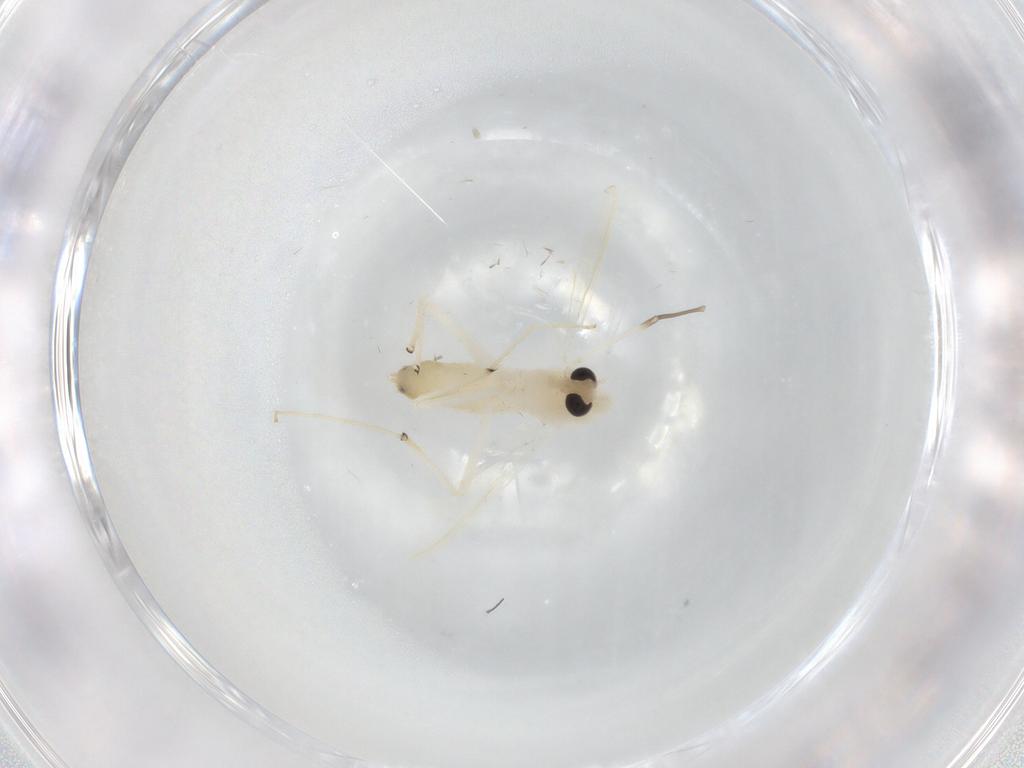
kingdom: Animalia
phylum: Arthropoda
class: Insecta
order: Diptera
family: Chironomidae
